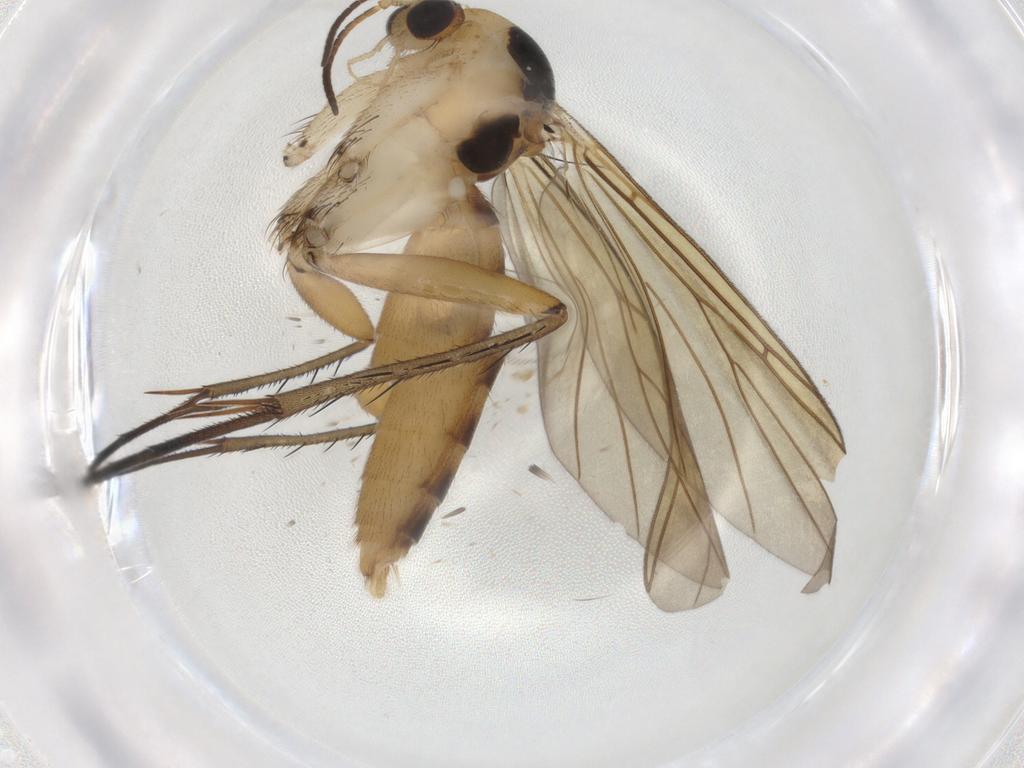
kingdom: Animalia
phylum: Arthropoda
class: Insecta
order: Diptera
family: Mycetophilidae
